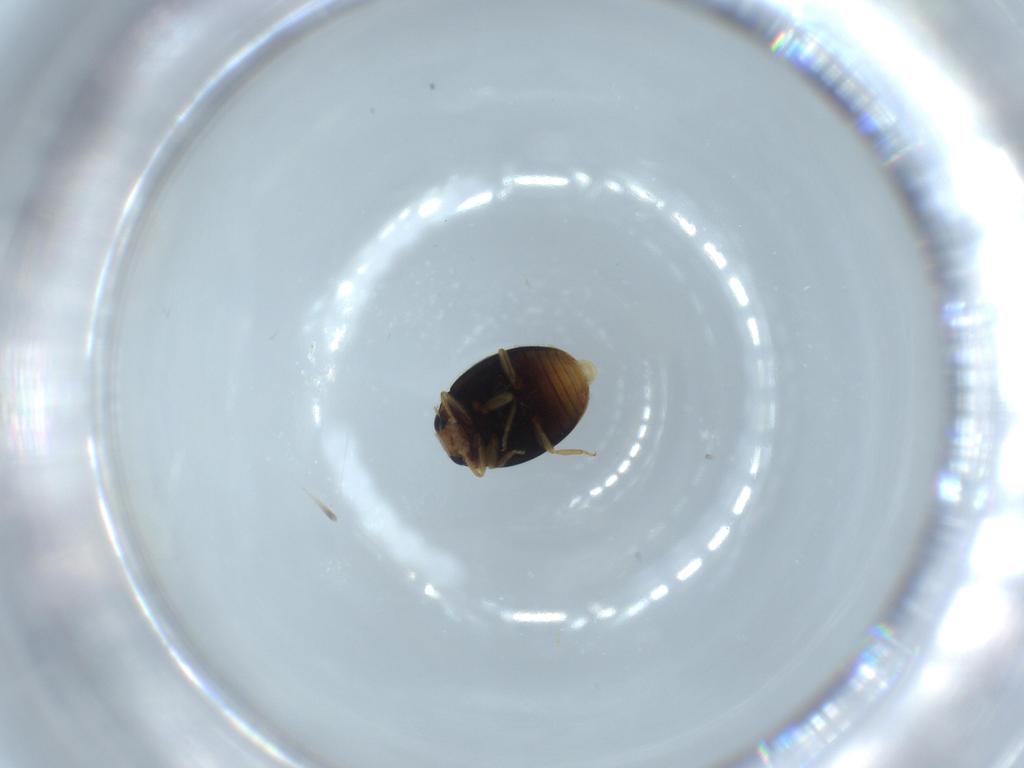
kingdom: Animalia
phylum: Arthropoda
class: Insecta
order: Coleoptera
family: Coccinellidae
